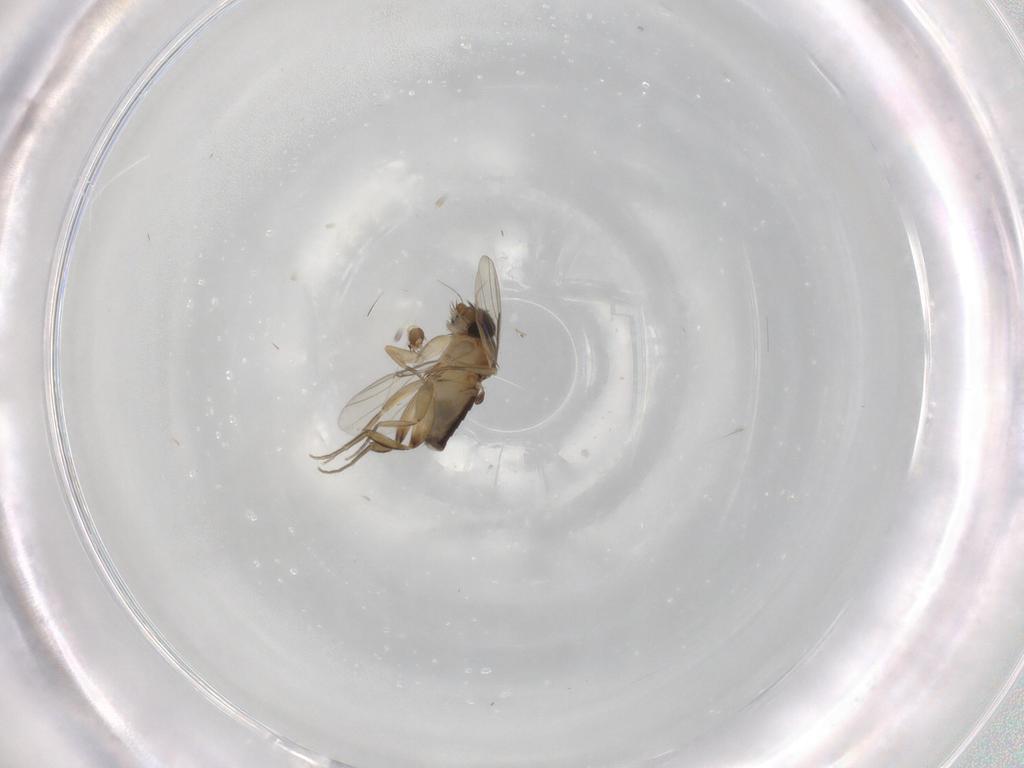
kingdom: Animalia
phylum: Arthropoda
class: Insecta
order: Diptera
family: Phoridae
